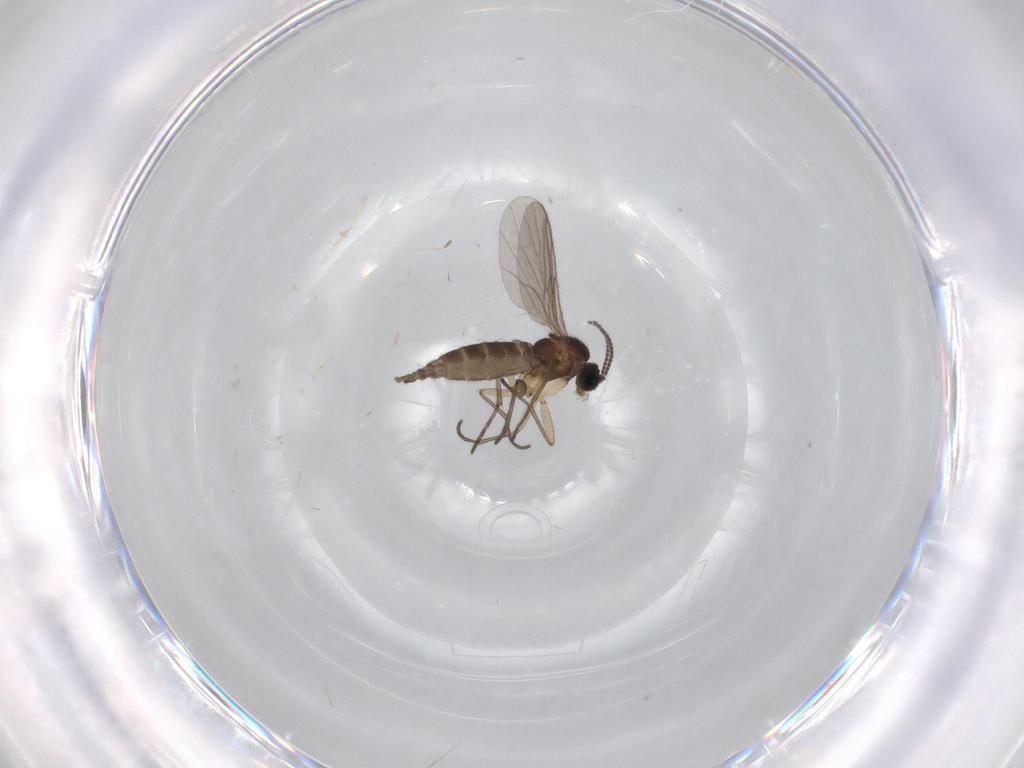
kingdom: Animalia
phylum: Arthropoda
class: Insecta
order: Diptera
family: Sciaridae
